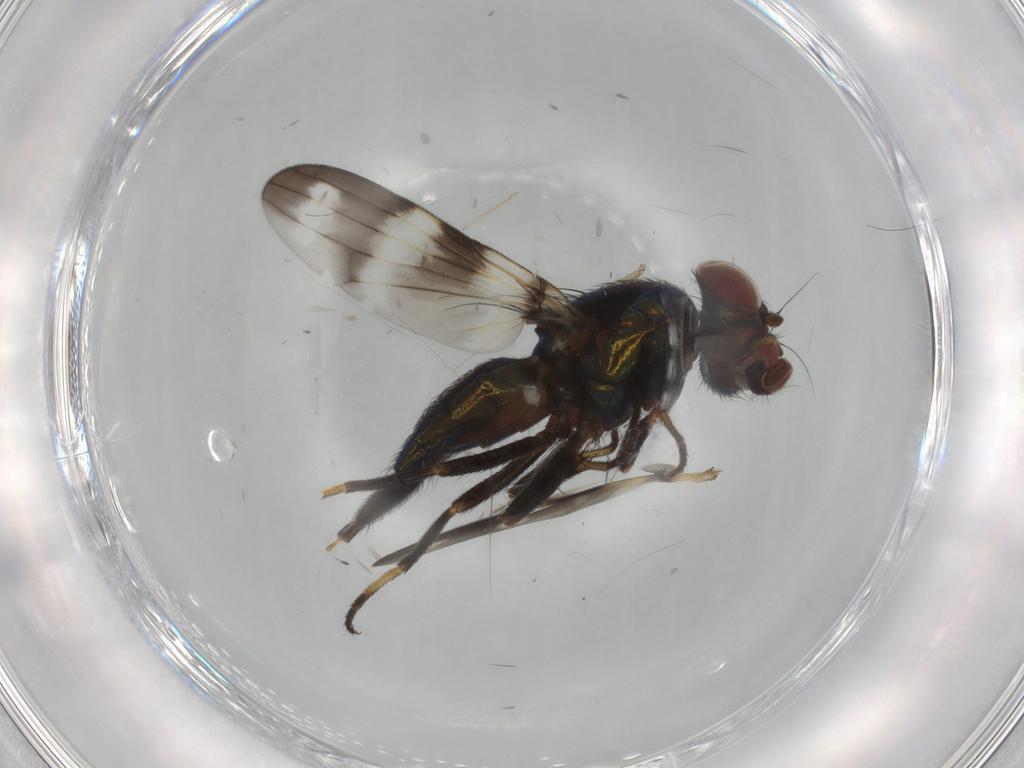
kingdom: Animalia
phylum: Arthropoda
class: Insecta
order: Diptera
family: Ulidiidae
